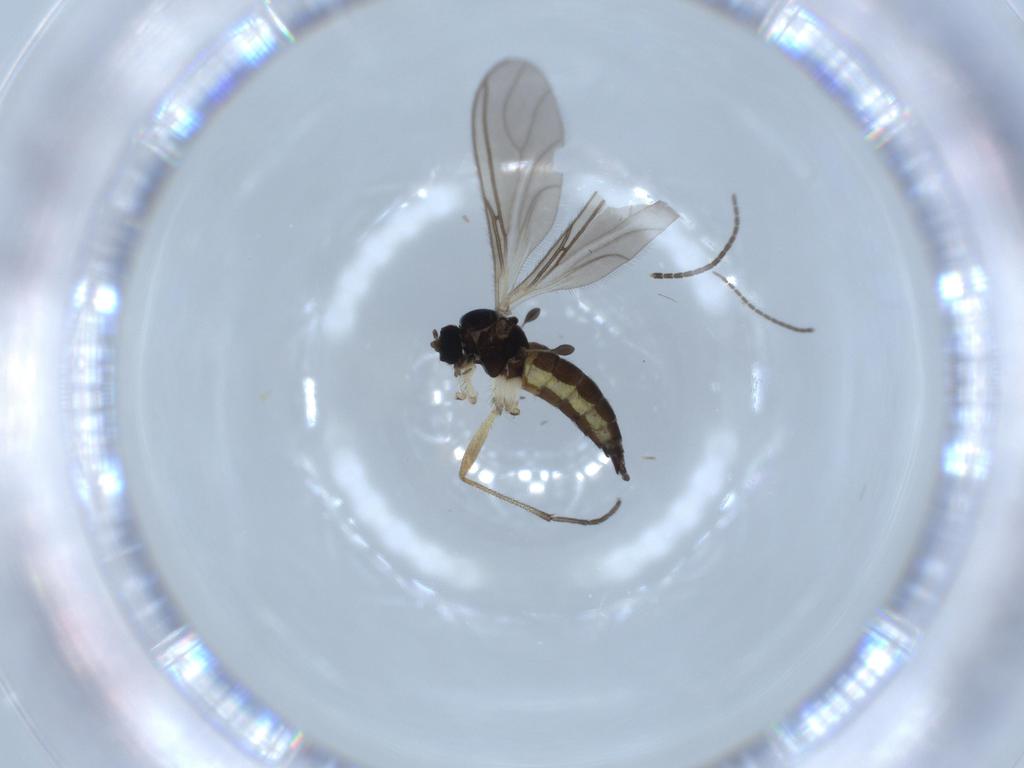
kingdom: Animalia
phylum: Arthropoda
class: Insecta
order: Diptera
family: Sciaridae
